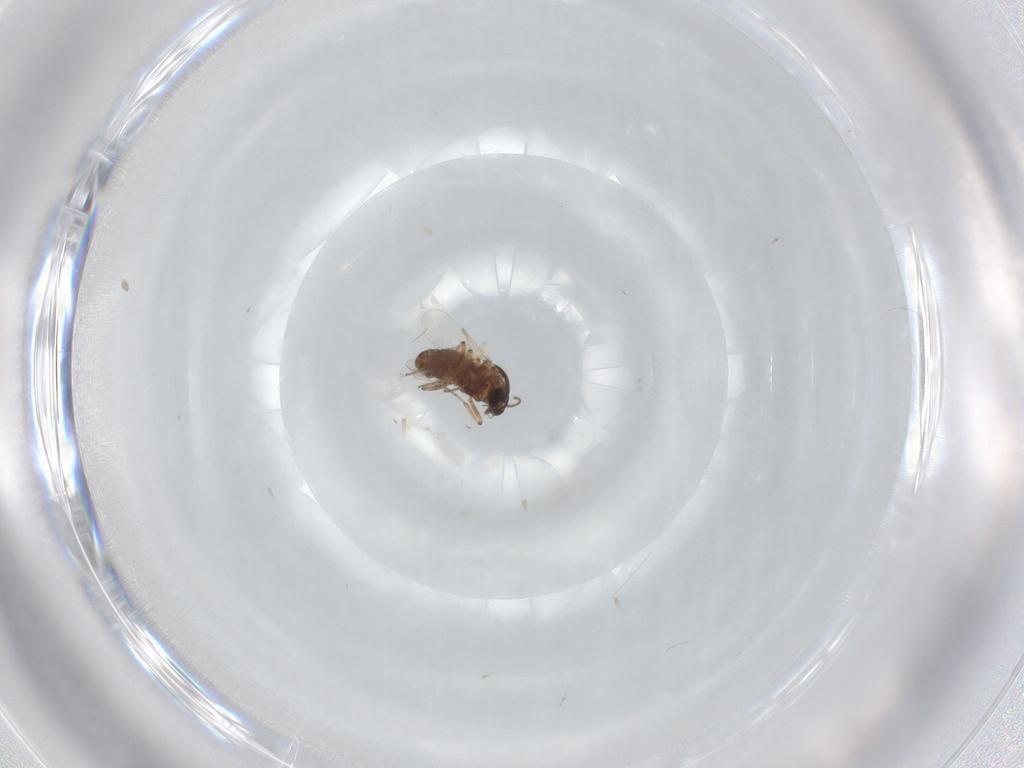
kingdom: Animalia
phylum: Arthropoda
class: Insecta
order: Diptera
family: Ceratopogonidae
